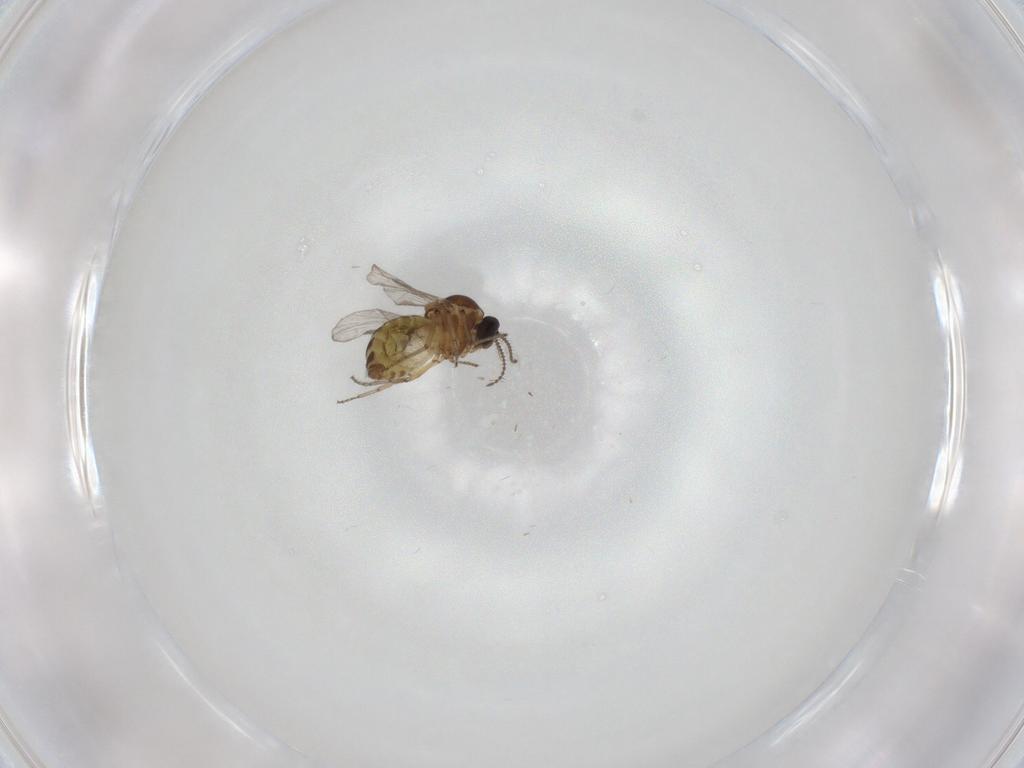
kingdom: Animalia
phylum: Arthropoda
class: Insecta
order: Diptera
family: Ceratopogonidae
